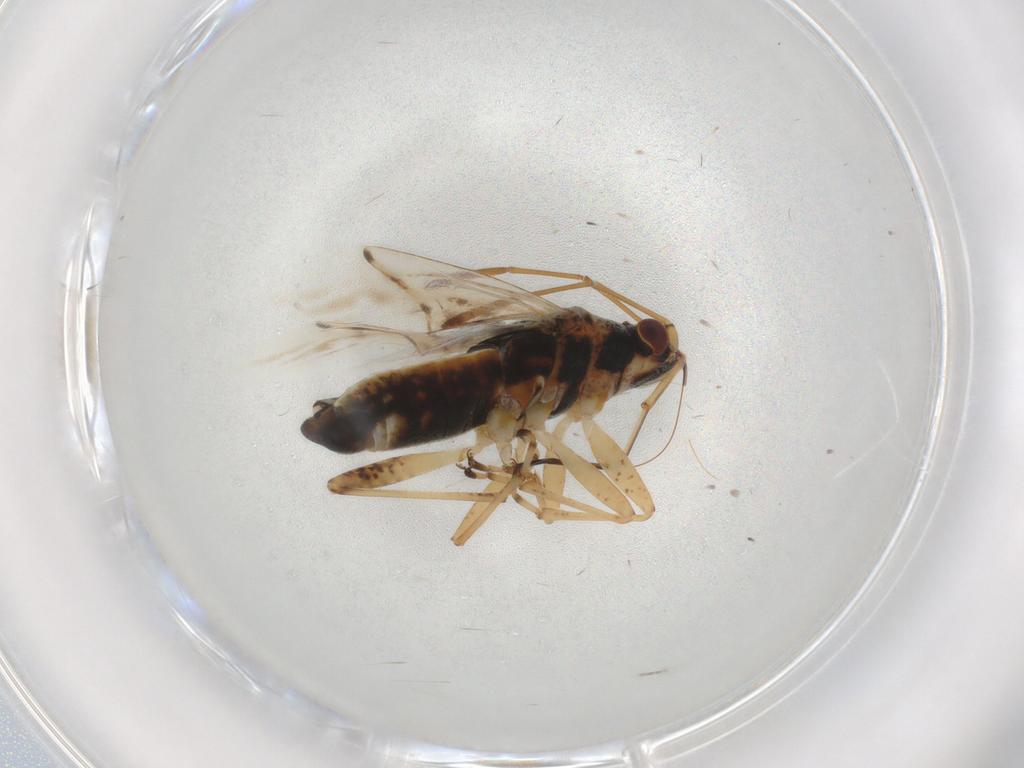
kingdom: Animalia
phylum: Arthropoda
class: Insecta
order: Hemiptera
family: Lygaeidae
